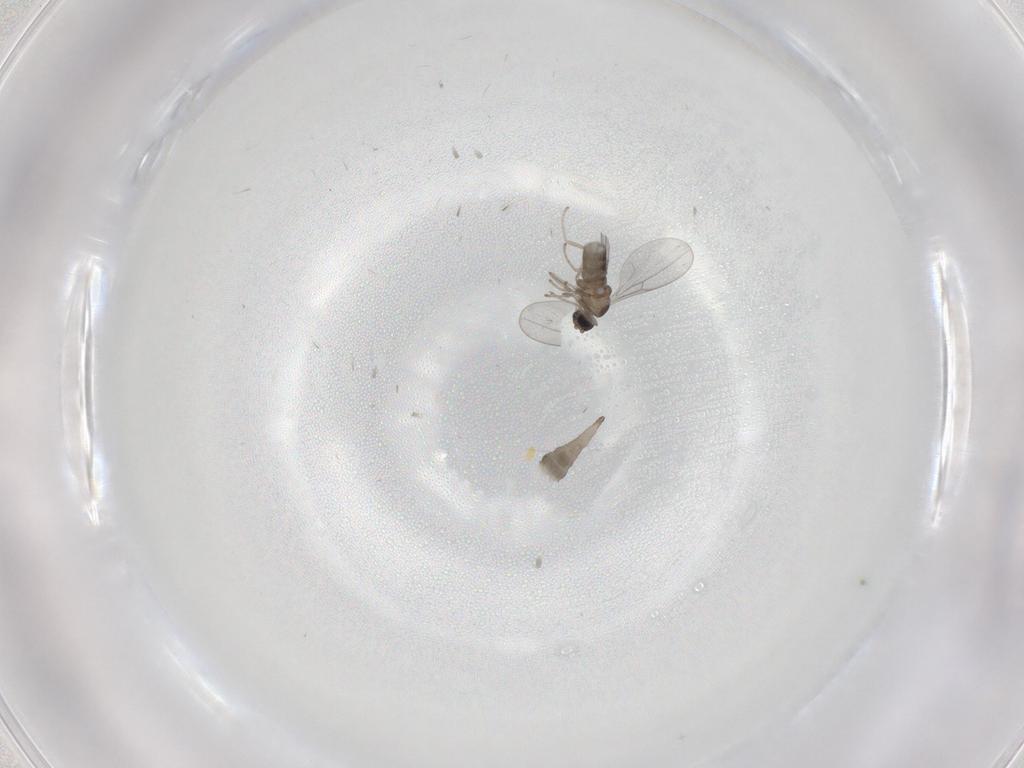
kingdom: Animalia
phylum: Arthropoda
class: Insecta
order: Diptera
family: Cecidomyiidae
